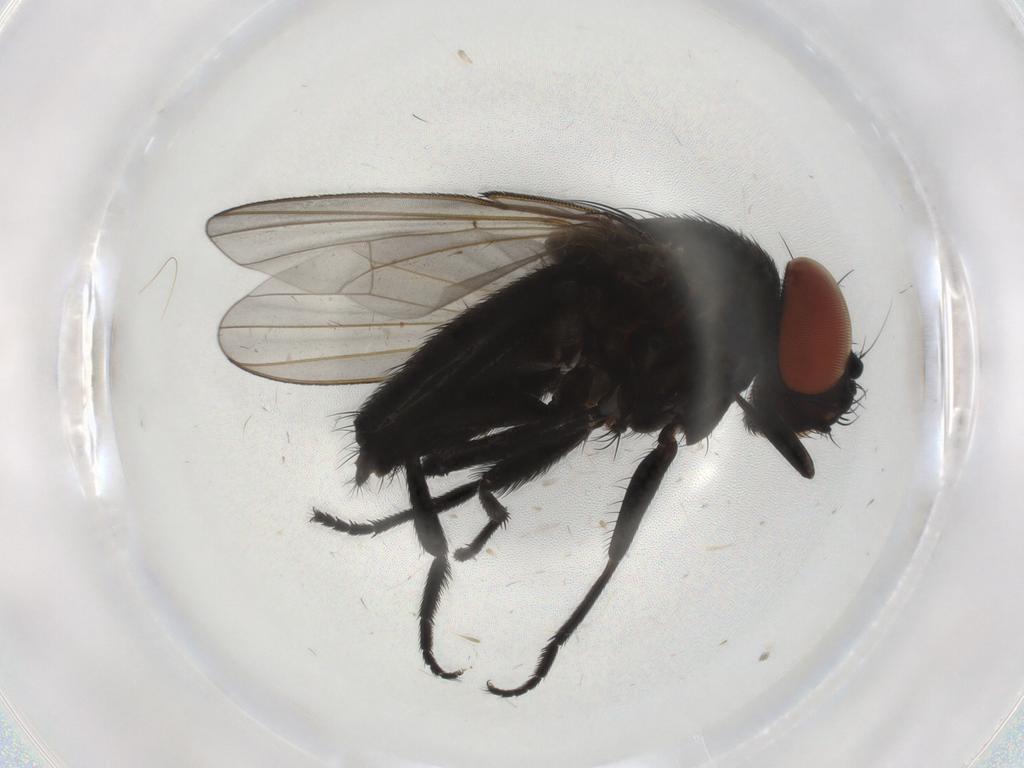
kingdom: Animalia
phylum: Arthropoda
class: Insecta
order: Diptera
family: Milichiidae
